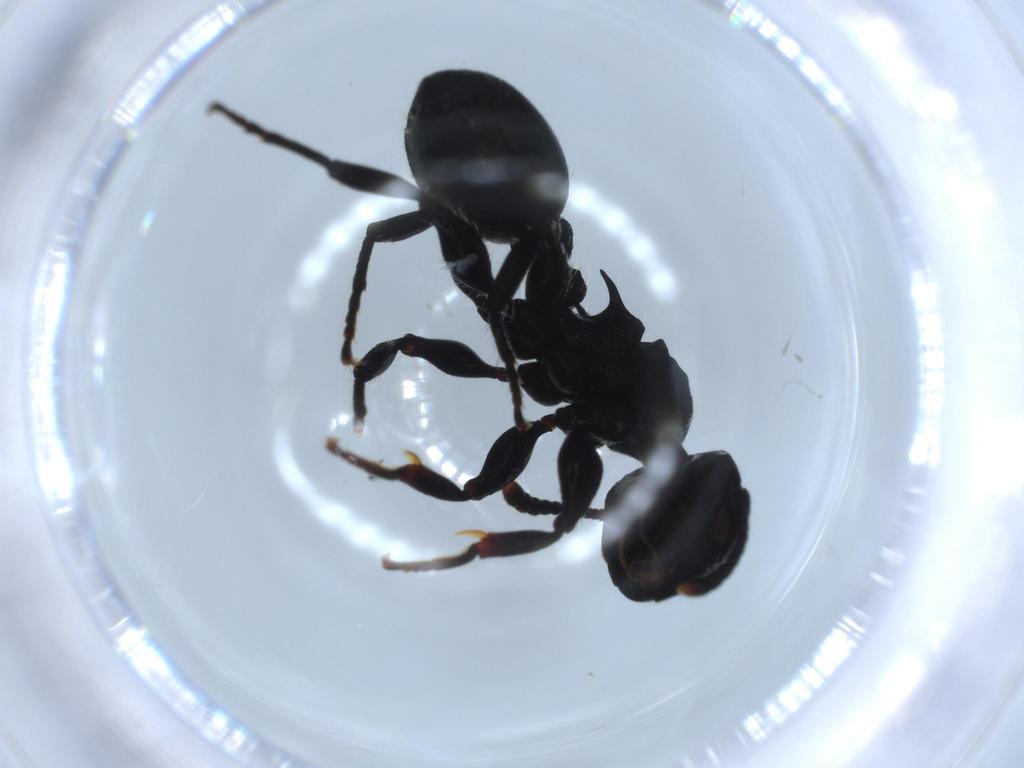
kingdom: Animalia
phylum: Arthropoda
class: Insecta
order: Hymenoptera
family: Formicidae
